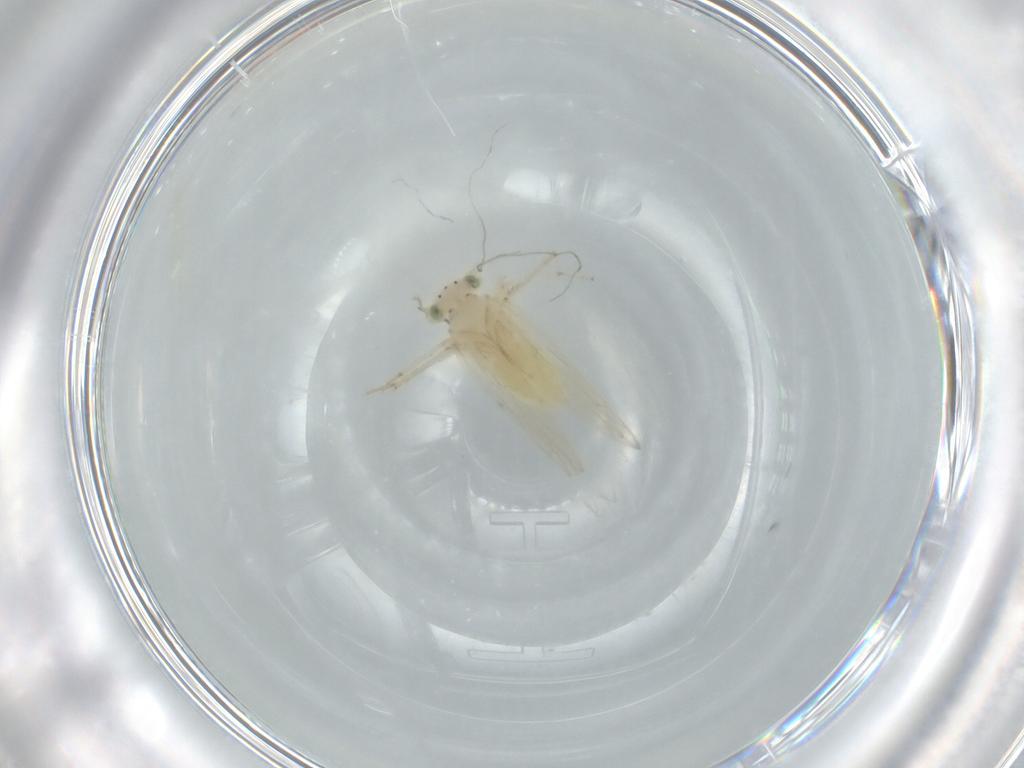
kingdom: Animalia
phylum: Arthropoda
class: Insecta
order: Psocodea
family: Lepidopsocidae
